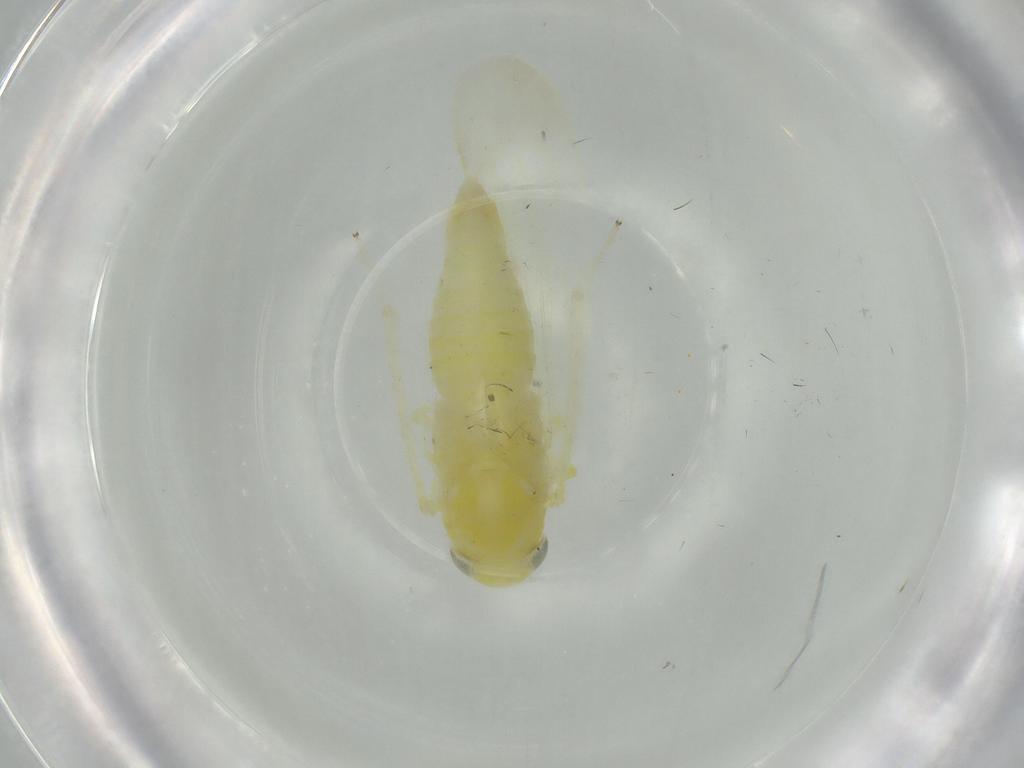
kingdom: Animalia
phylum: Arthropoda
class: Insecta
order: Hemiptera
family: Cicadellidae
